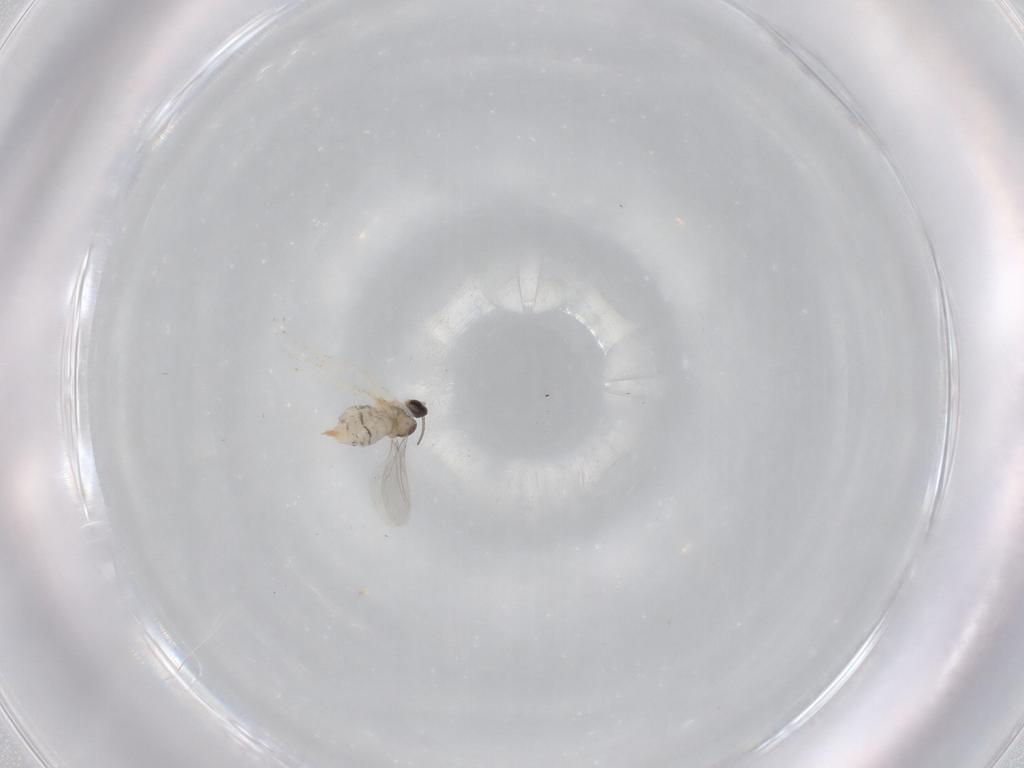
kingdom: Animalia
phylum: Arthropoda
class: Insecta
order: Diptera
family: Cecidomyiidae
